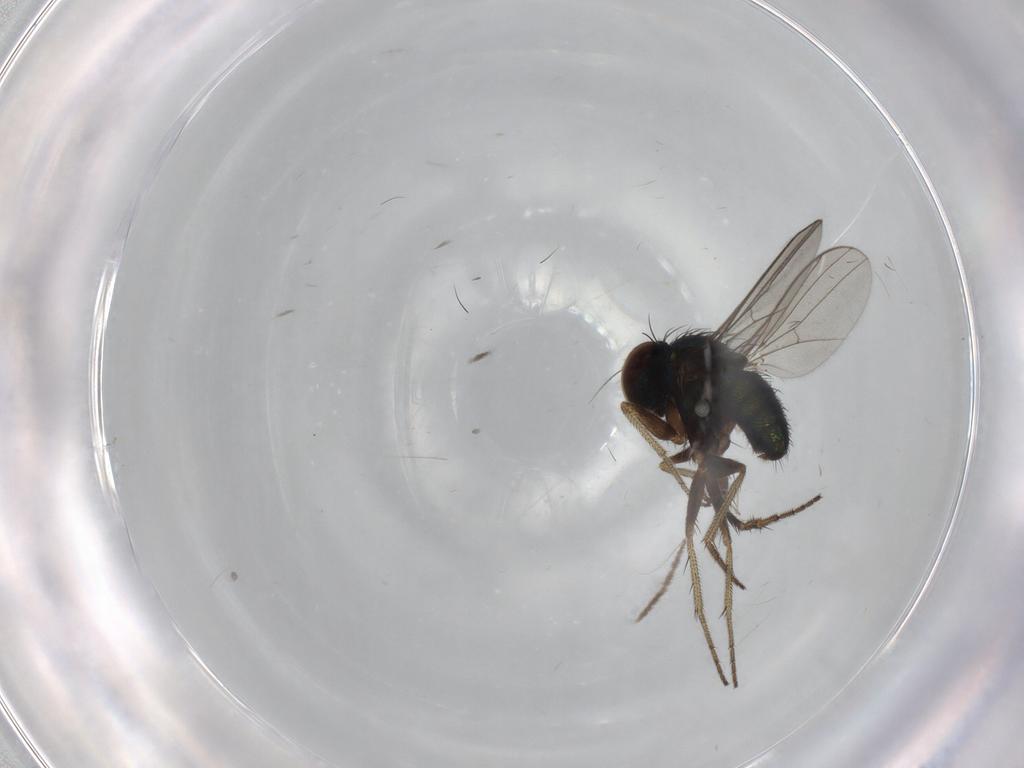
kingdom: Animalia
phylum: Arthropoda
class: Insecta
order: Diptera
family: Chironomidae
